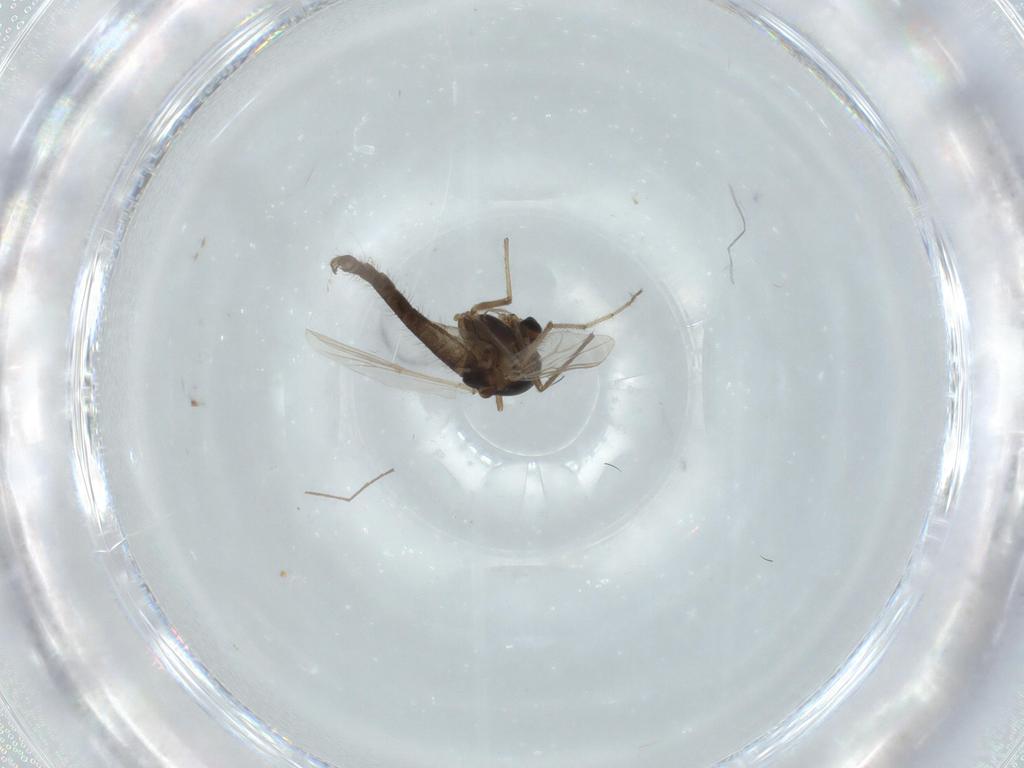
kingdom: Animalia
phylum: Arthropoda
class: Insecta
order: Diptera
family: Chironomidae
